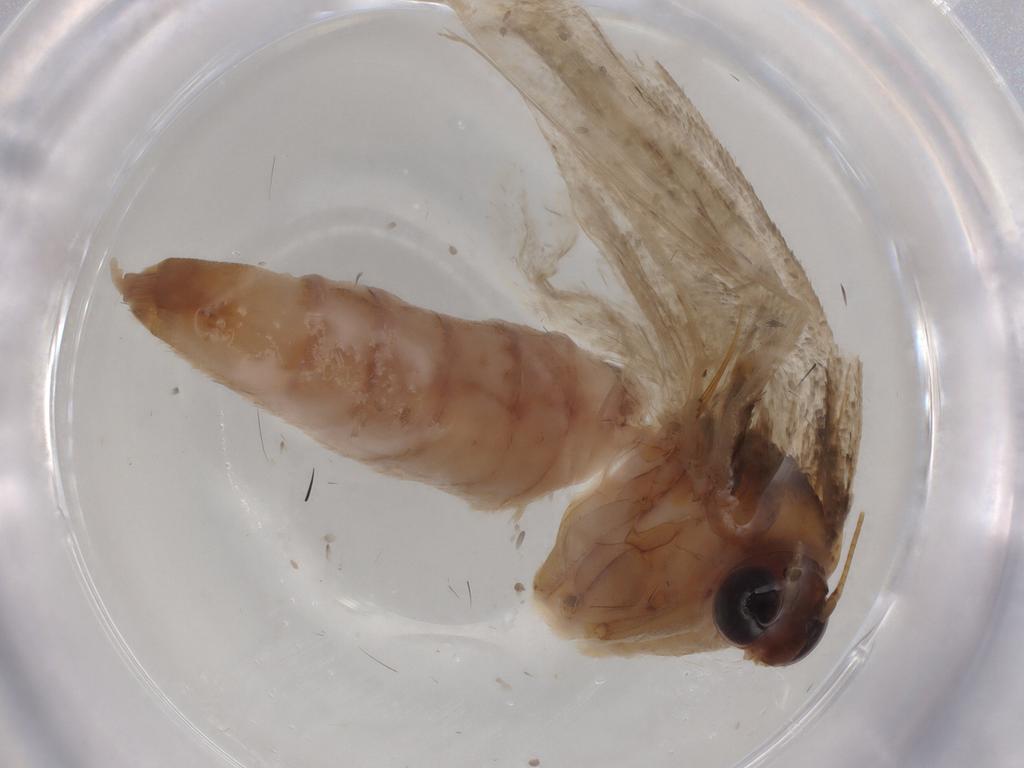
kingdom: Animalia
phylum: Arthropoda
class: Insecta
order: Lepidoptera
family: Crambidae
